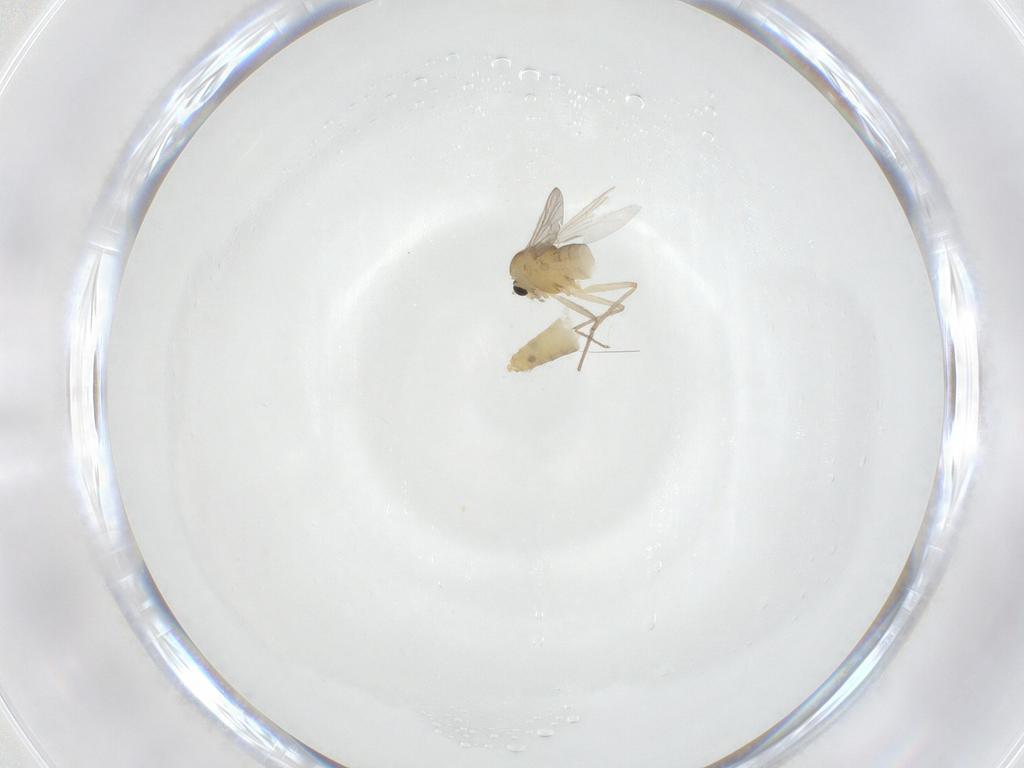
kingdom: Animalia
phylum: Arthropoda
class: Insecta
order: Diptera
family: Chironomidae
